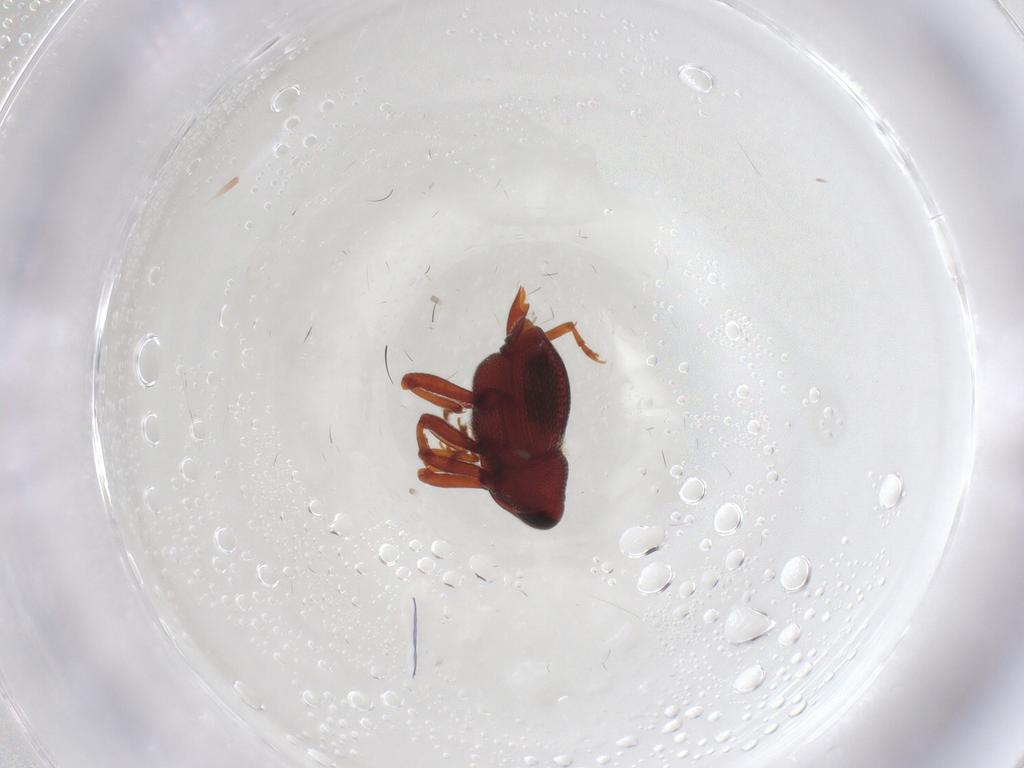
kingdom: Animalia
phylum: Arthropoda
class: Insecta
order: Coleoptera
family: Curculionidae
